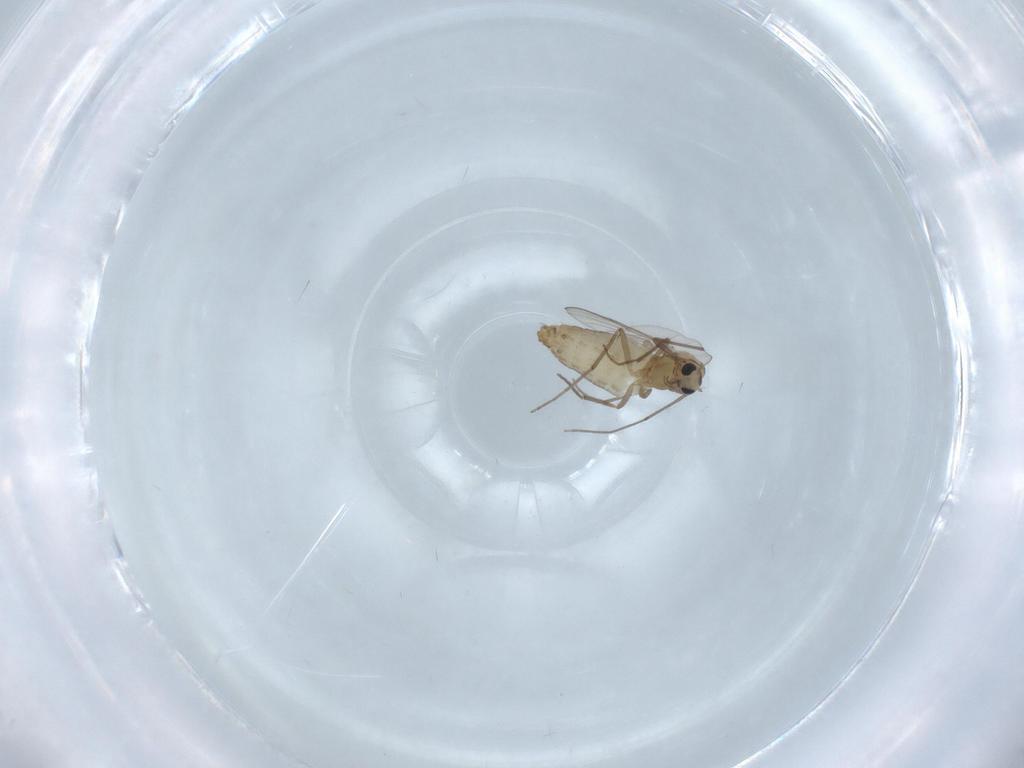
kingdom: Animalia
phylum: Arthropoda
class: Insecta
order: Diptera
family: Chironomidae
